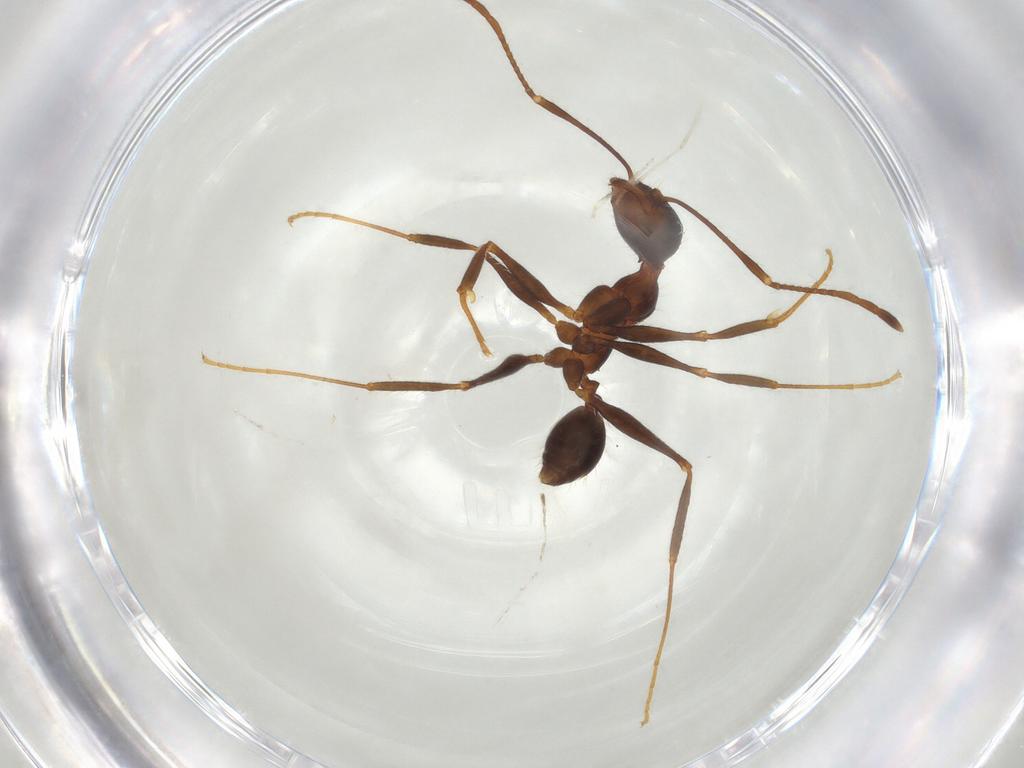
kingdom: Animalia
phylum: Arthropoda
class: Insecta
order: Hymenoptera
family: Formicidae
